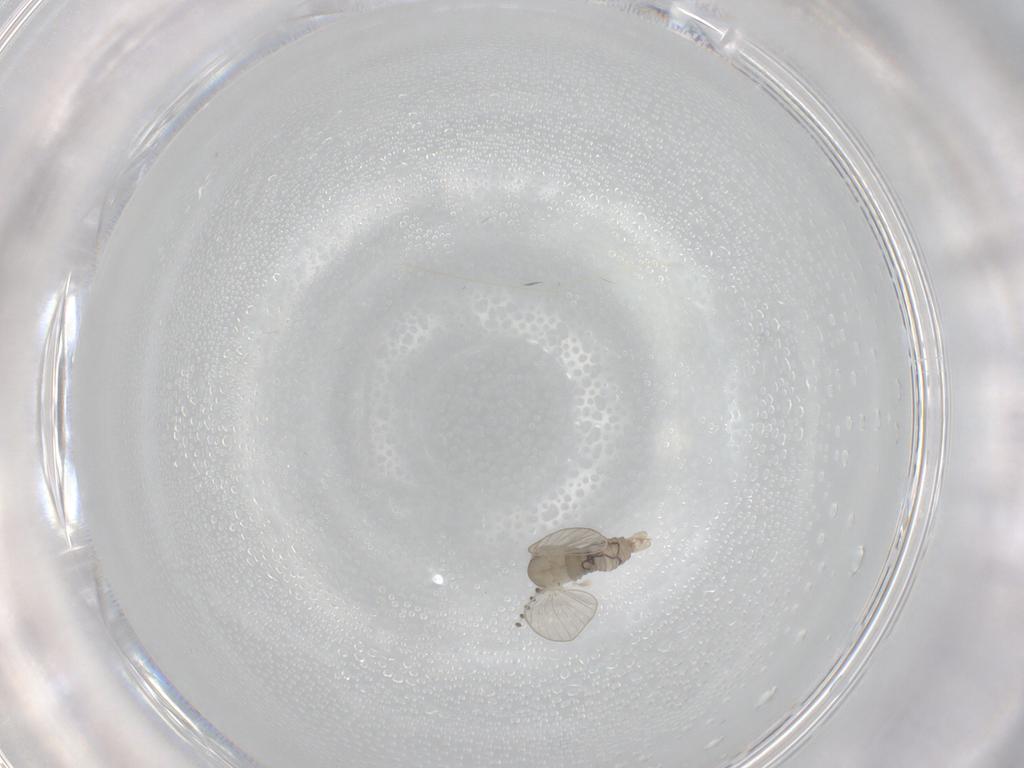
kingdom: Animalia
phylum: Arthropoda
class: Insecta
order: Diptera
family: Psychodidae
